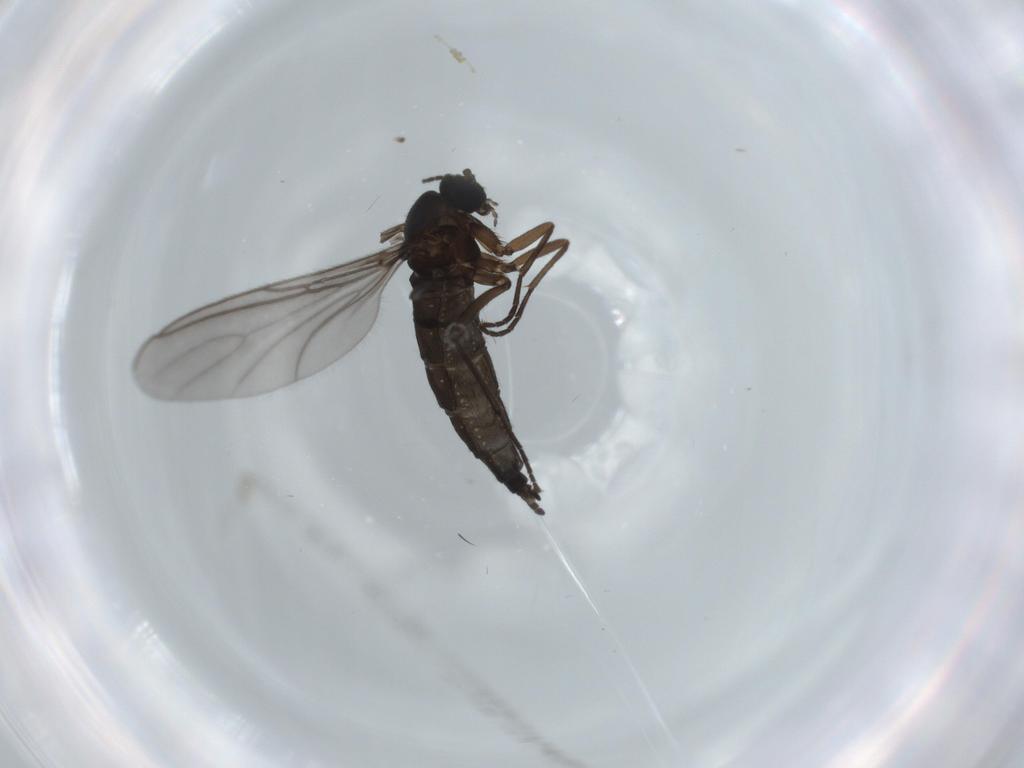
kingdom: Animalia
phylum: Arthropoda
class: Insecta
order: Diptera
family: Sciaridae
